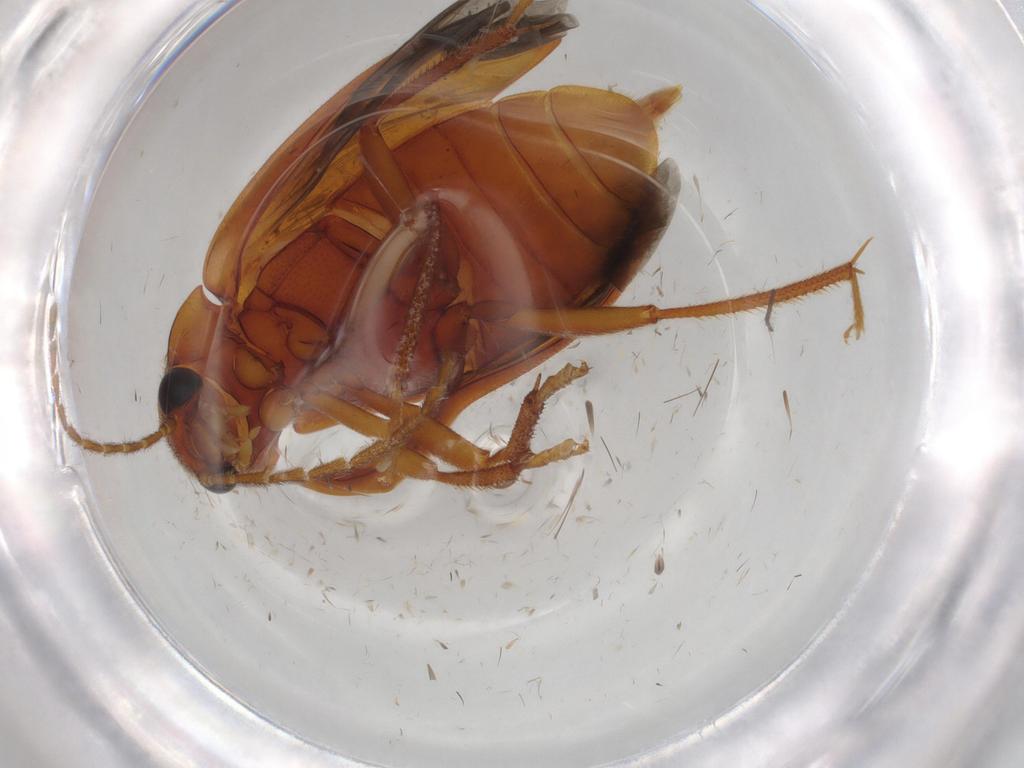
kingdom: Animalia
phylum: Arthropoda
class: Insecta
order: Coleoptera
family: Ptilodactylidae
